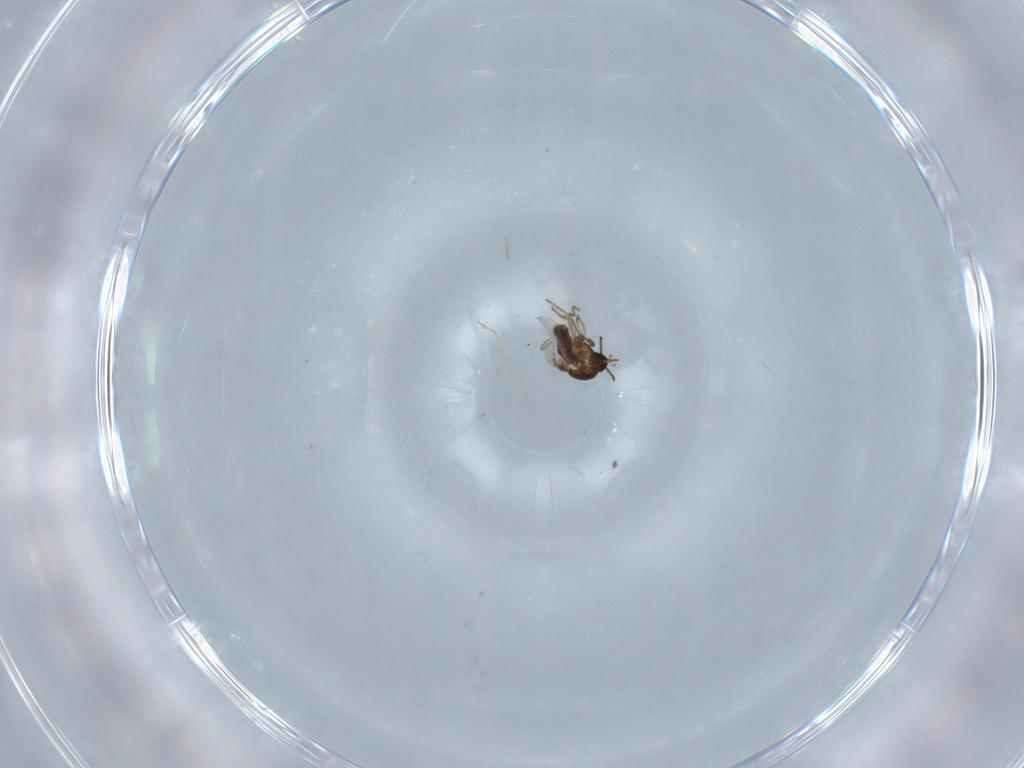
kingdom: Animalia
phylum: Arthropoda
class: Insecta
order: Diptera
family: Ceratopogonidae
